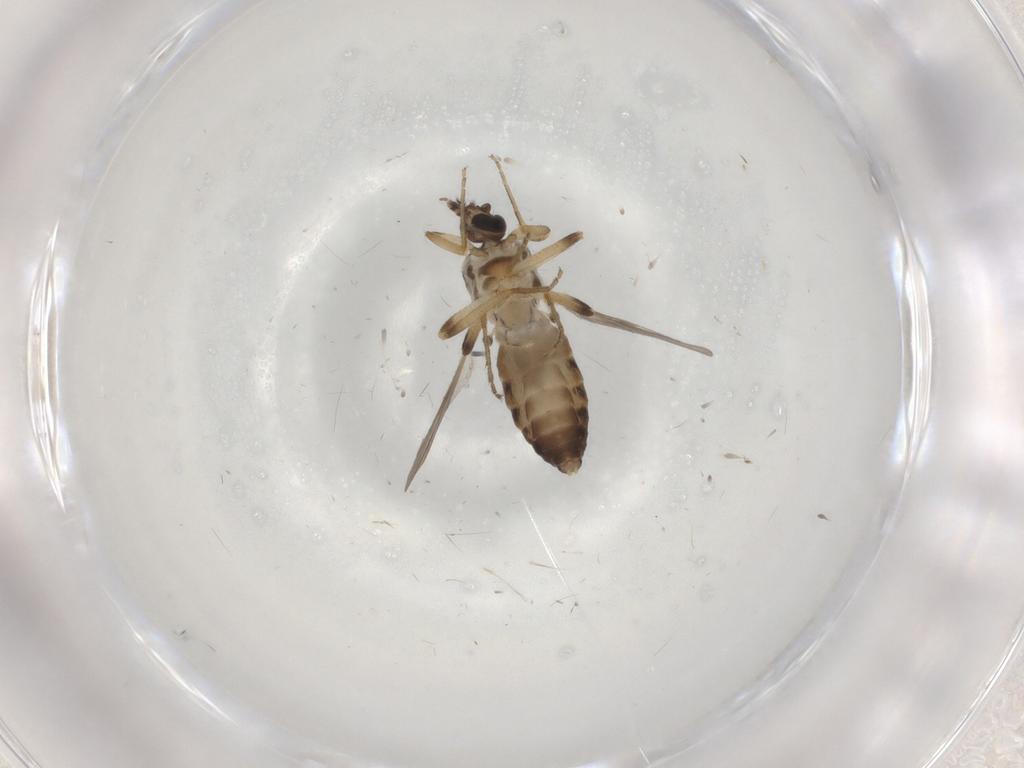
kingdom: Animalia
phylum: Arthropoda
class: Insecta
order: Diptera
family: Ceratopogonidae
